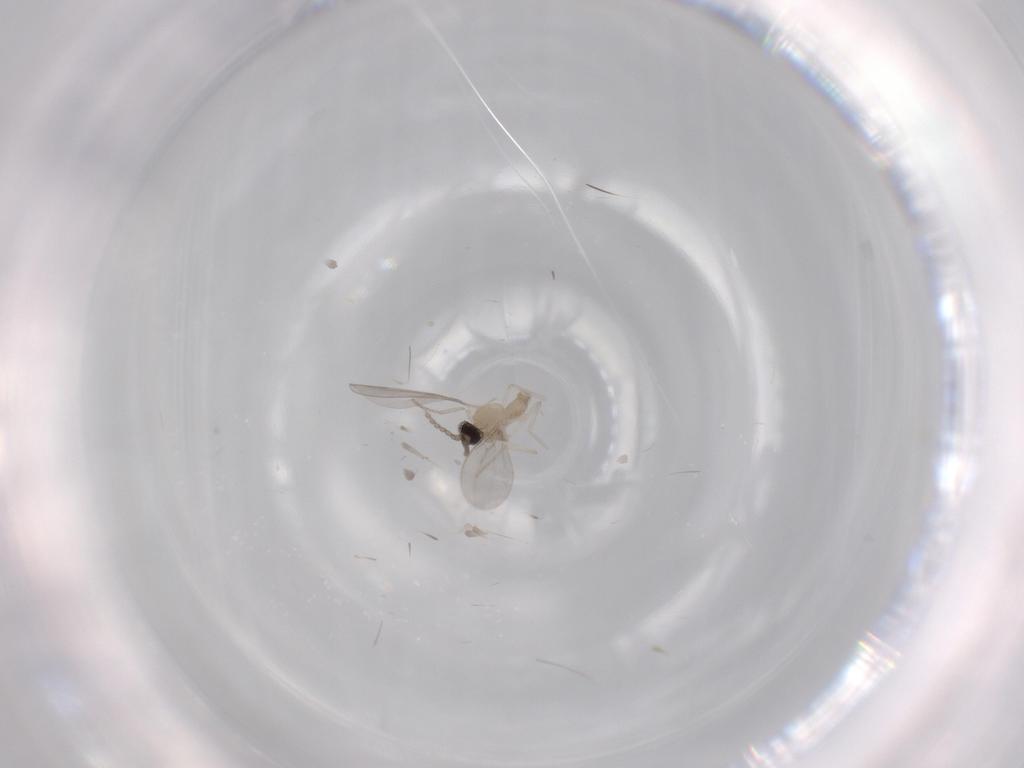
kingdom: Animalia
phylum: Arthropoda
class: Insecta
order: Diptera
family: Cecidomyiidae
